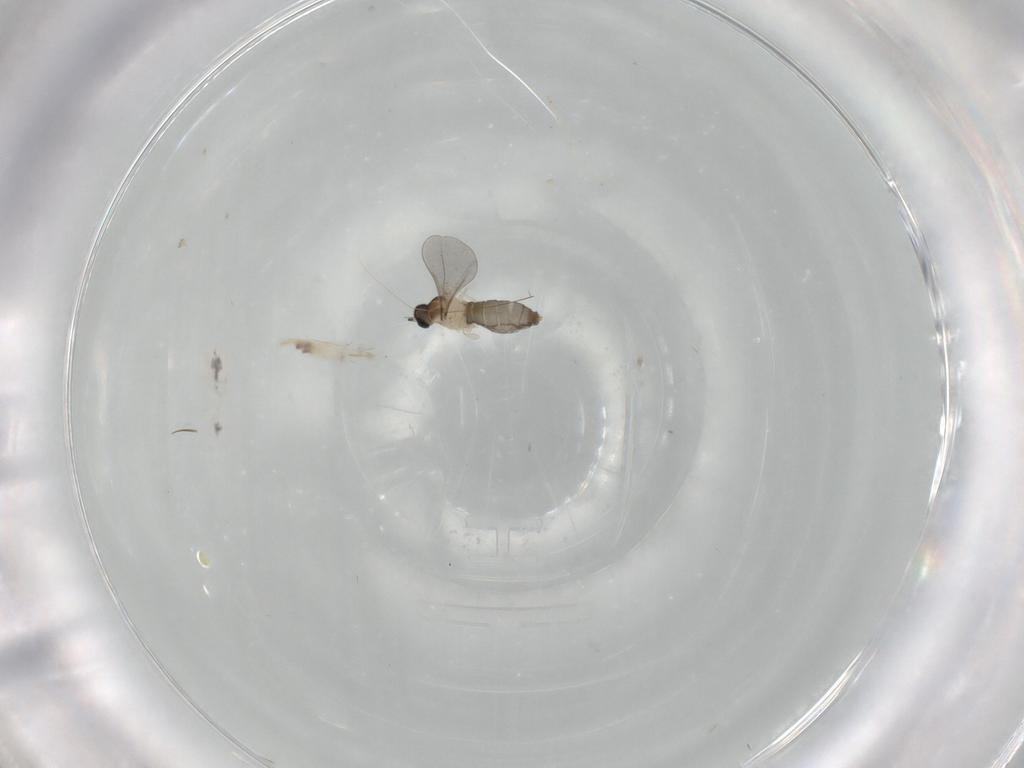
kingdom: Animalia
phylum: Arthropoda
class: Insecta
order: Diptera
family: Cecidomyiidae
